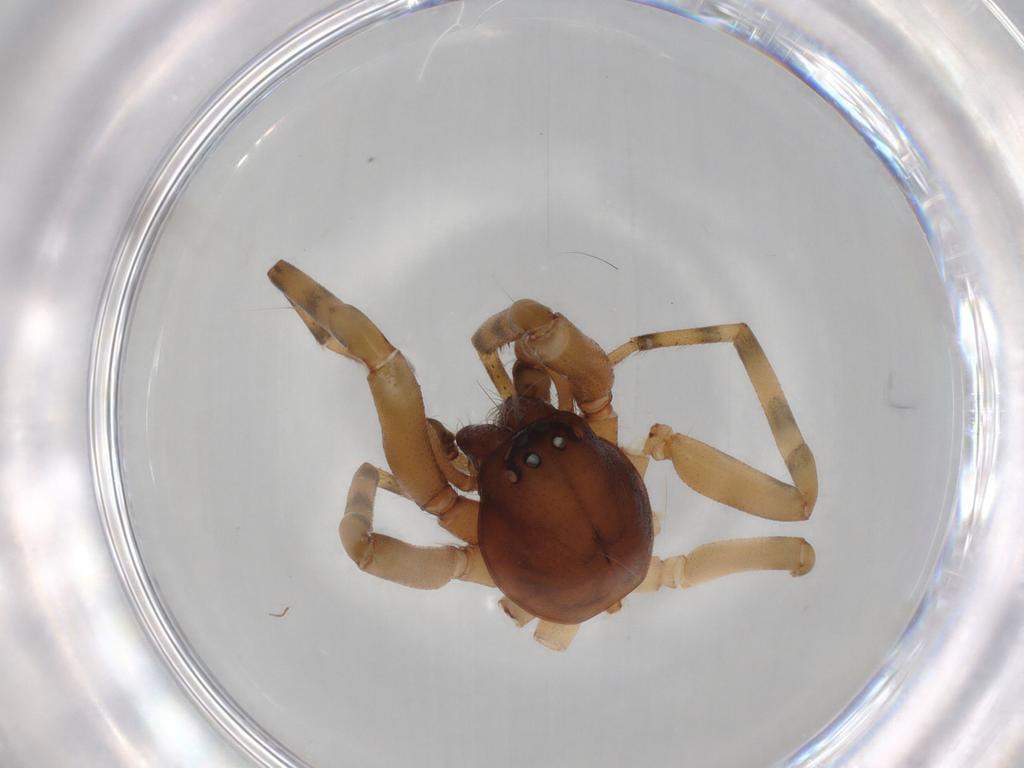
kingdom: Animalia
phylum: Arthropoda
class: Arachnida
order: Araneae
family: Trachelidae
